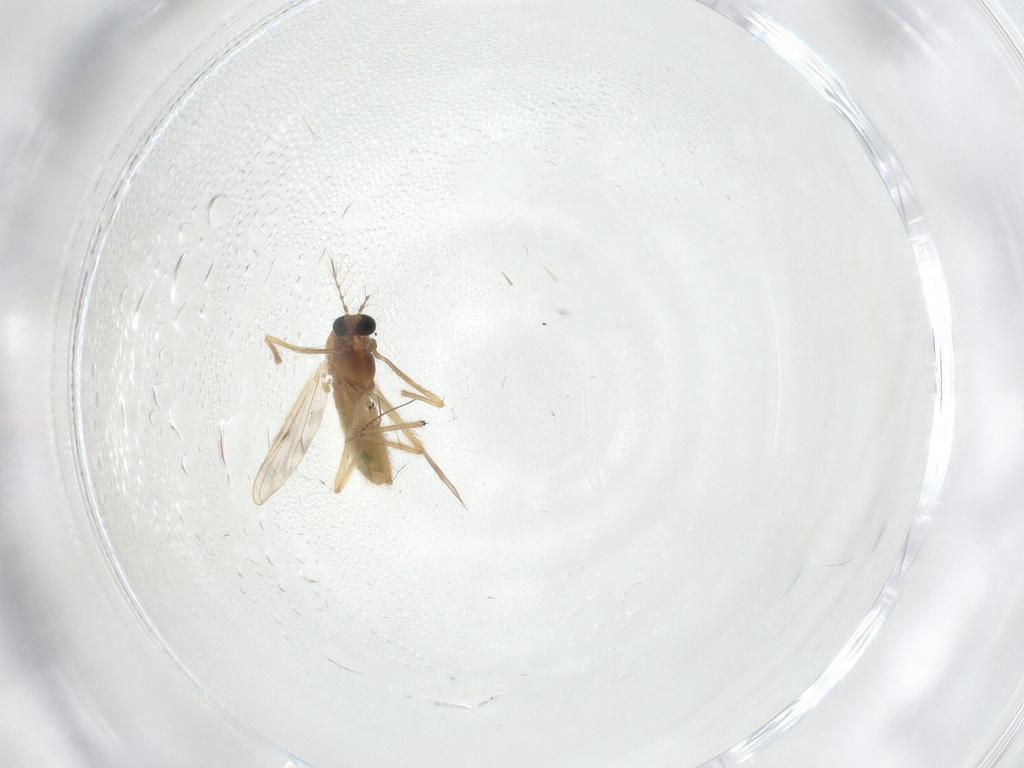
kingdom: Animalia
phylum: Arthropoda
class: Insecta
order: Diptera
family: Chironomidae
